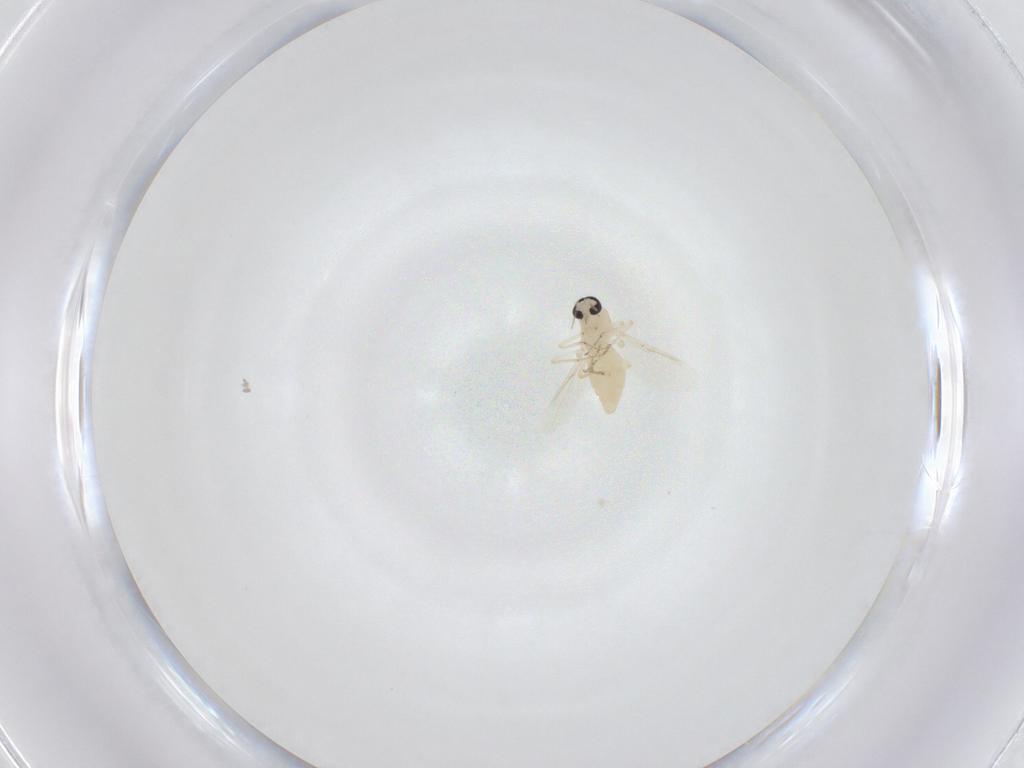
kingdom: Animalia
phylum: Arthropoda
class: Insecta
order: Diptera
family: Ceratopogonidae
